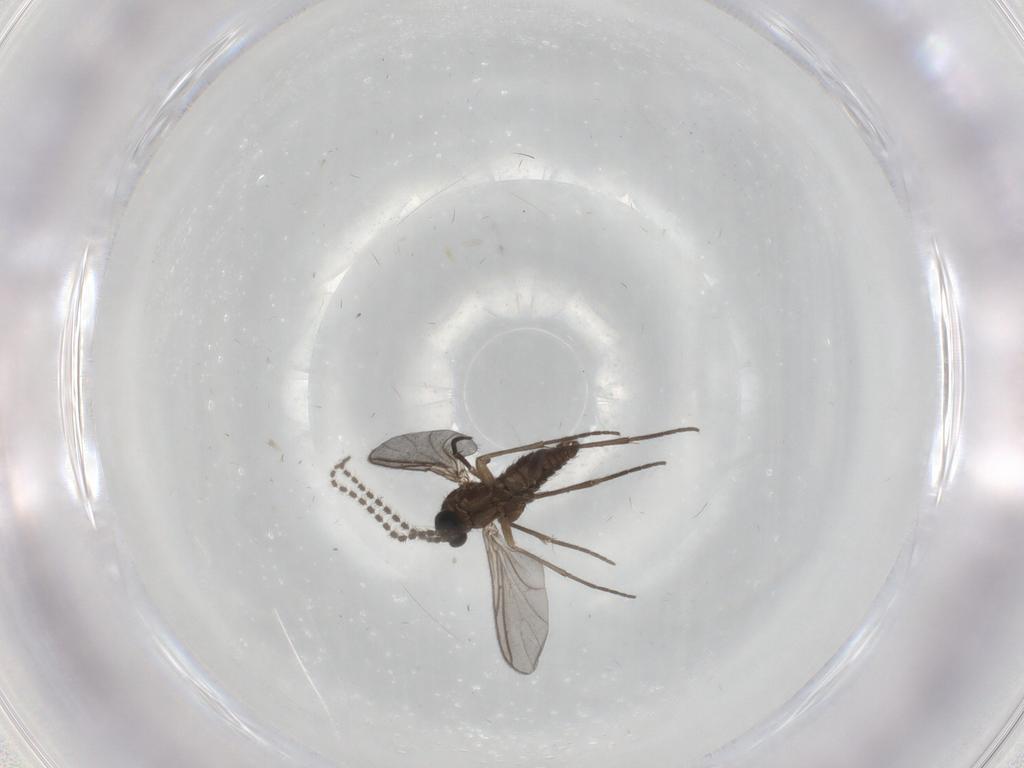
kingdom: Animalia
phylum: Arthropoda
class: Insecta
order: Diptera
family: Sciaridae
